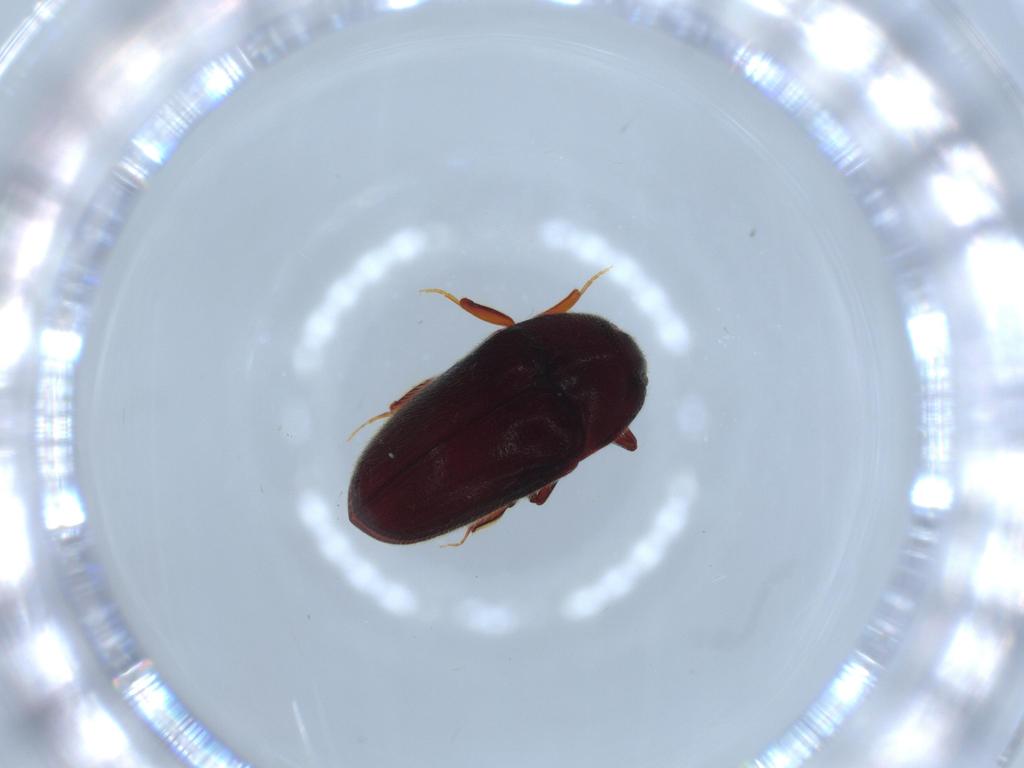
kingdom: Animalia
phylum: Arthropoda
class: Insecta
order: Coleoptera
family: Throscidae
